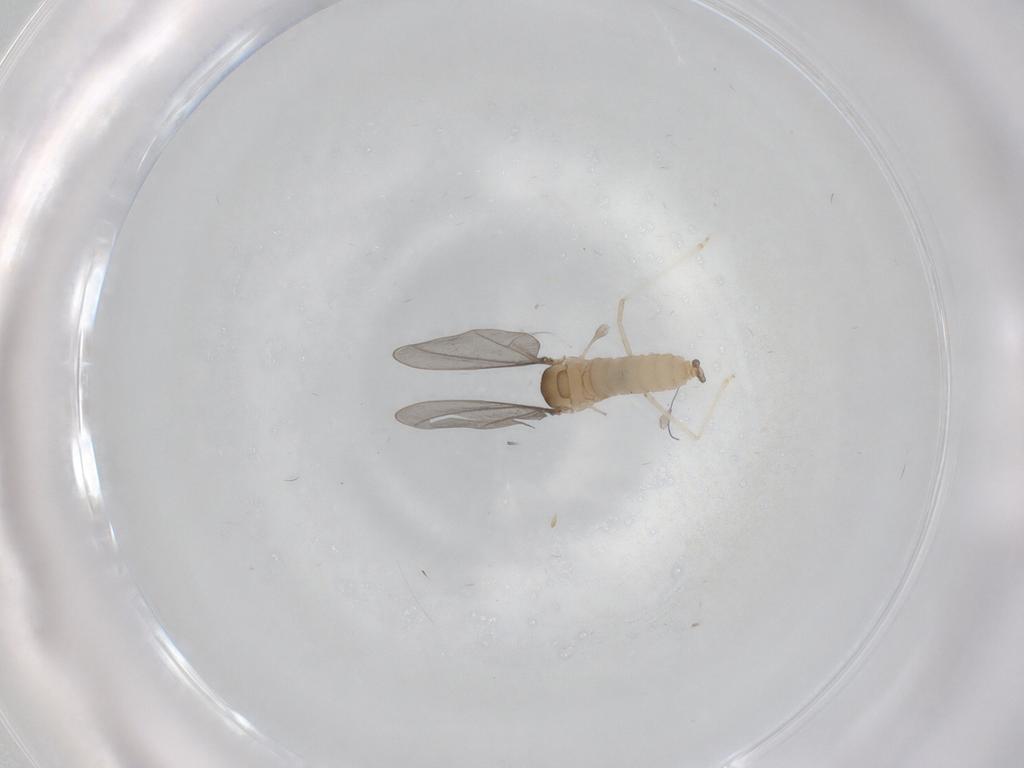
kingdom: Animalia
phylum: Arthropoda
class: Insecta
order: Diptera
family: Cecidomyiidae
